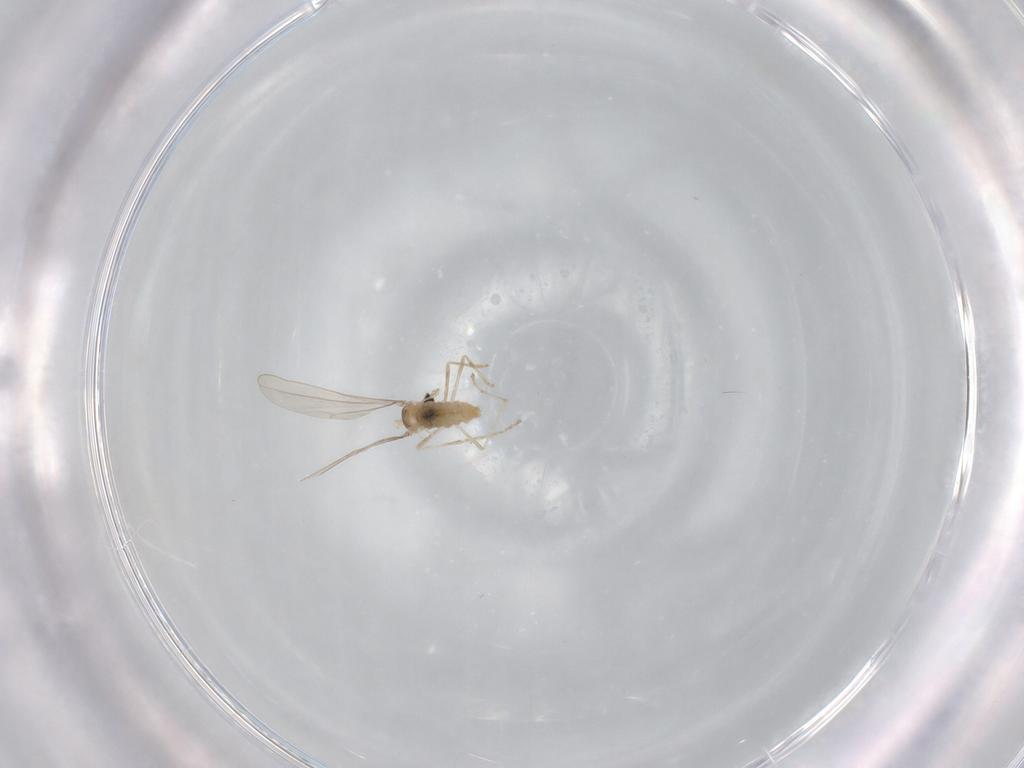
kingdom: Animalia
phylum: Arthropoda
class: Insecta
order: Diptera
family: Cecidomyiidae
